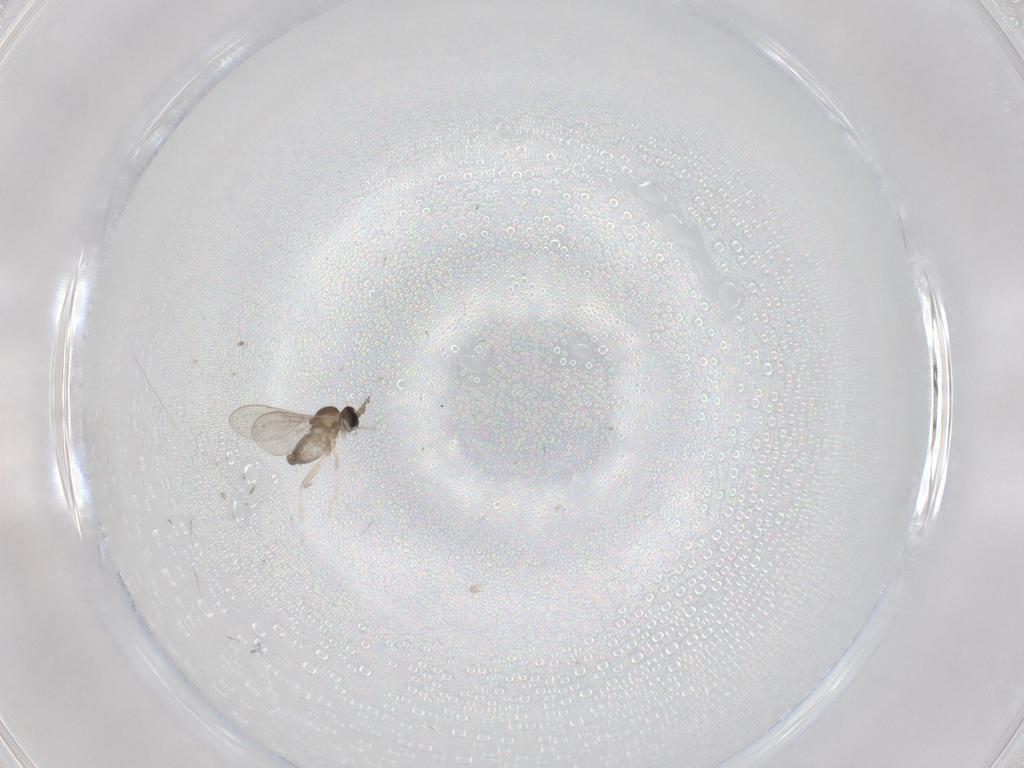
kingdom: Animalia
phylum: Arthropoda
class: Insecta
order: Diptera
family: Cecidomyiidae
